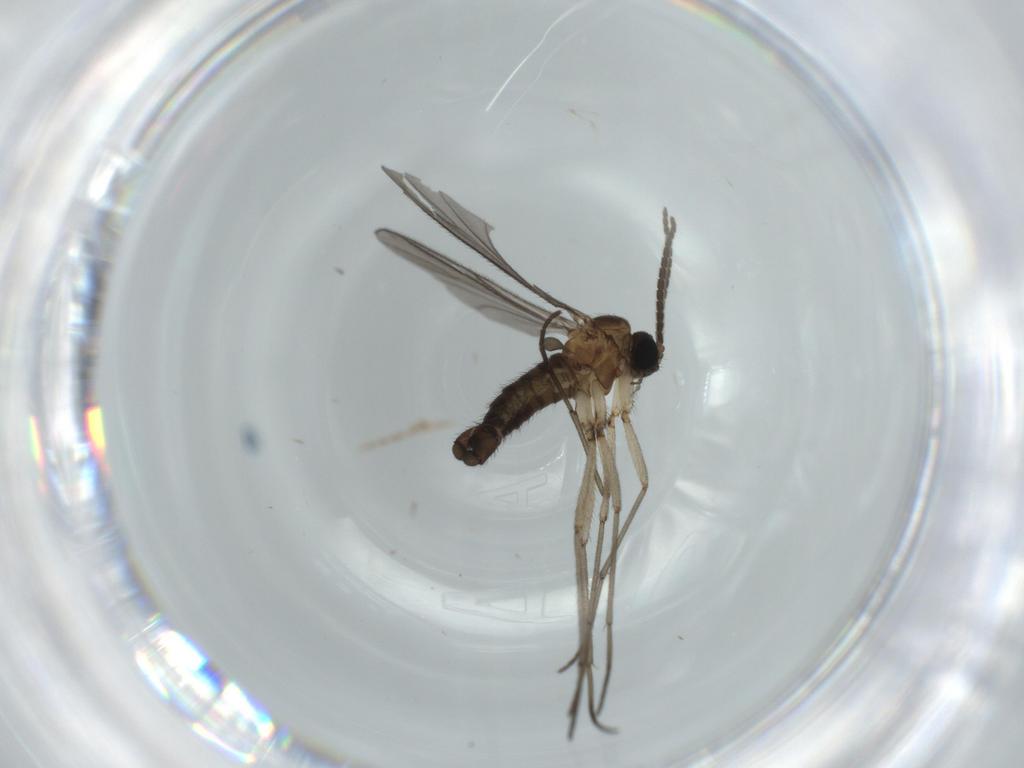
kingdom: Animalia
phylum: Arthropoda
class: Insecta
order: Diptera
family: Sciaridae
